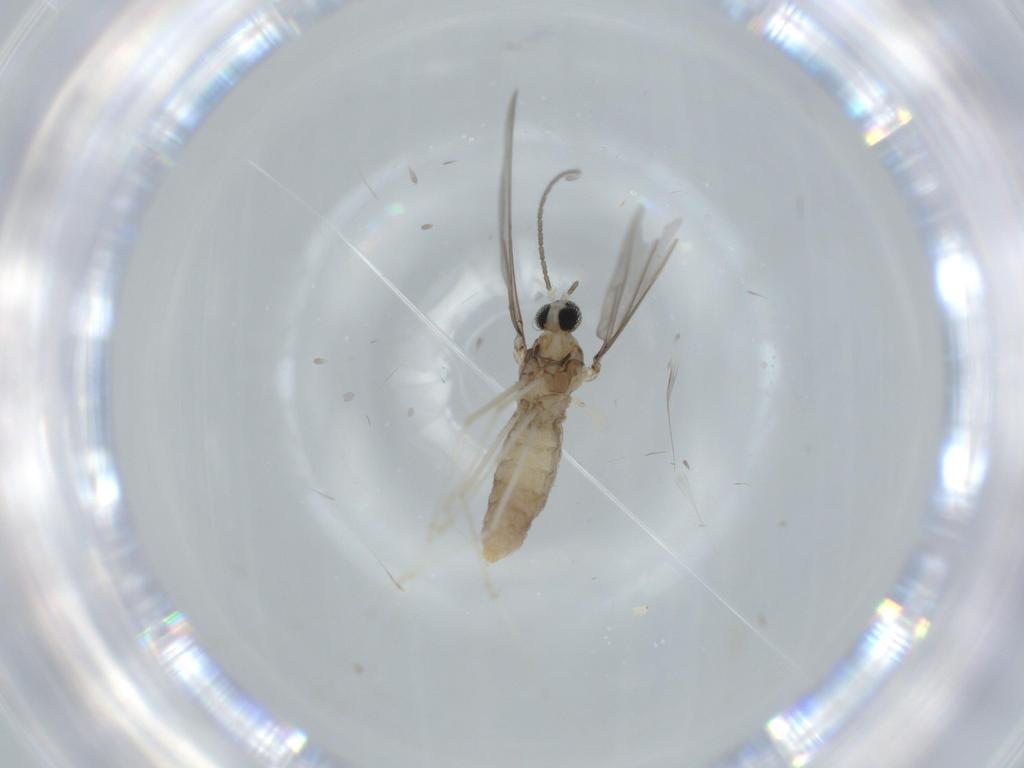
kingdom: Animalia
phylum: Arthropoda
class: Insecta
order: Diptera
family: Cecidomyiidae
